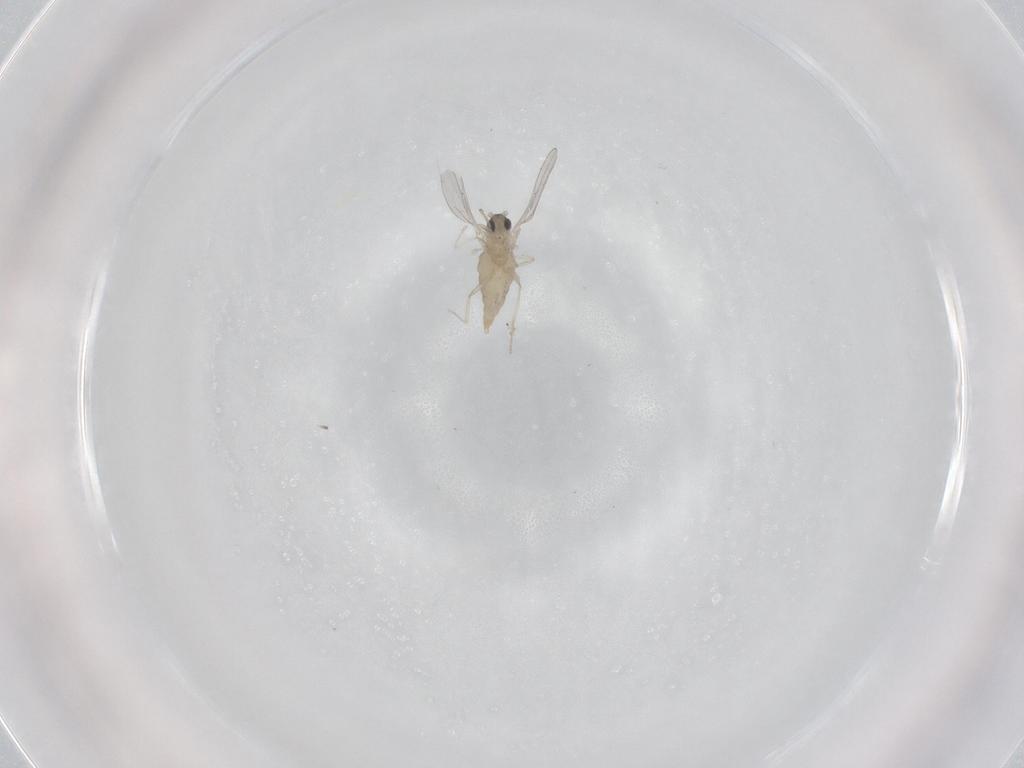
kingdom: Animalia
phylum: Arthropoda
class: Insecta
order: Diptera
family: Cecidomyiidae
